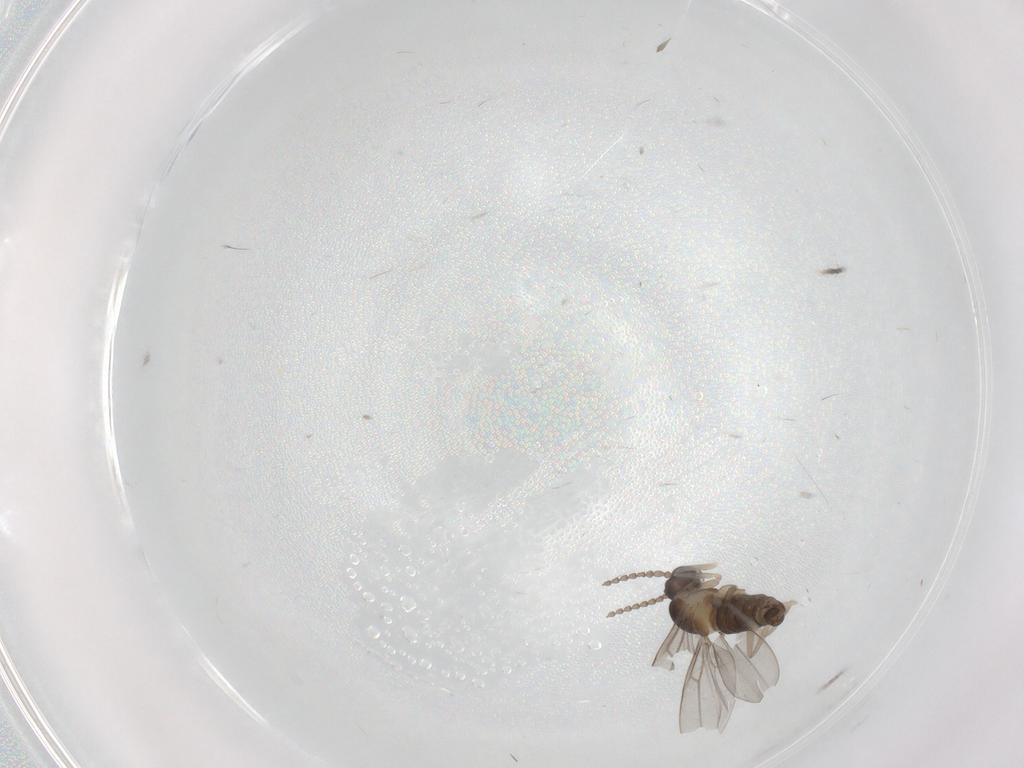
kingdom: Animalia
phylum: Arthropoda
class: Insecta
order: Diptera
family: Cecidomyiidae
